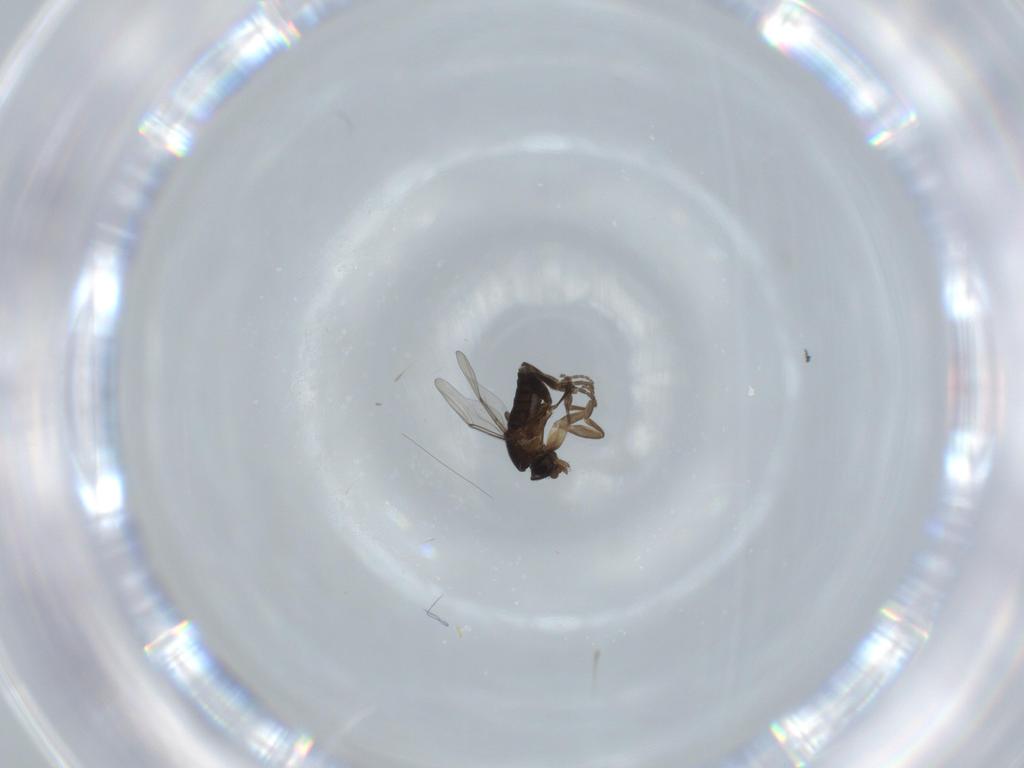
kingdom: Animalia
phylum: Arthropoda
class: Insecta
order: Diptera
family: Phoridae
